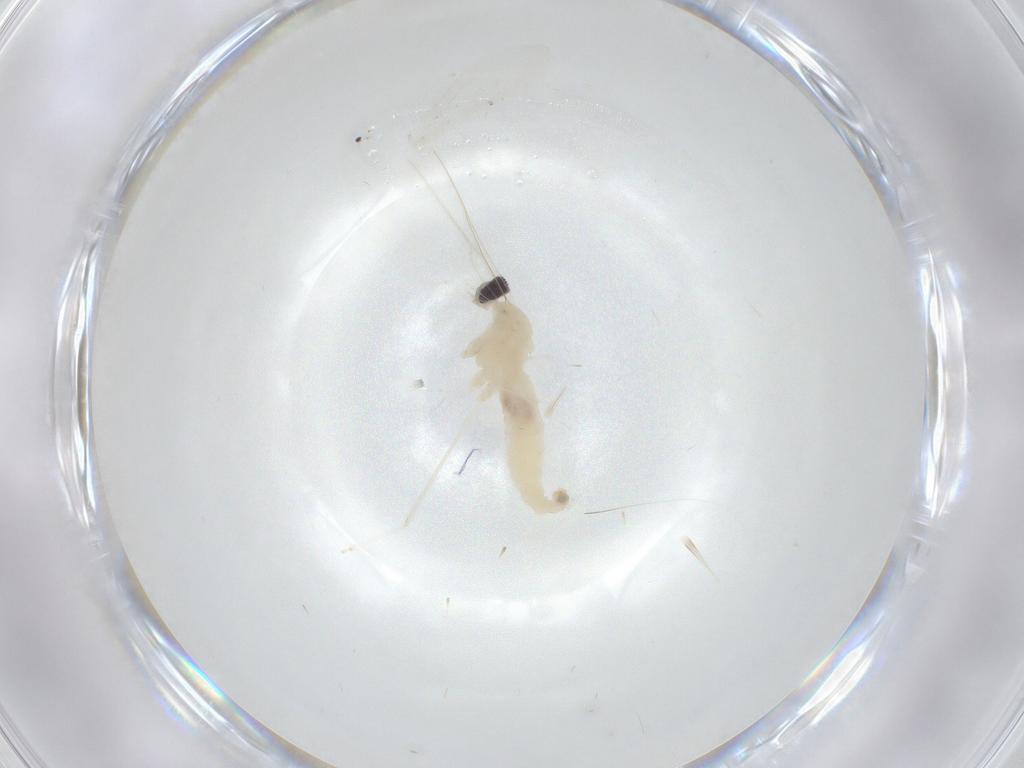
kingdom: Animalia
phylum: Arthropoda
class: Insecta
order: Diptera
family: Cecidomyiidae
